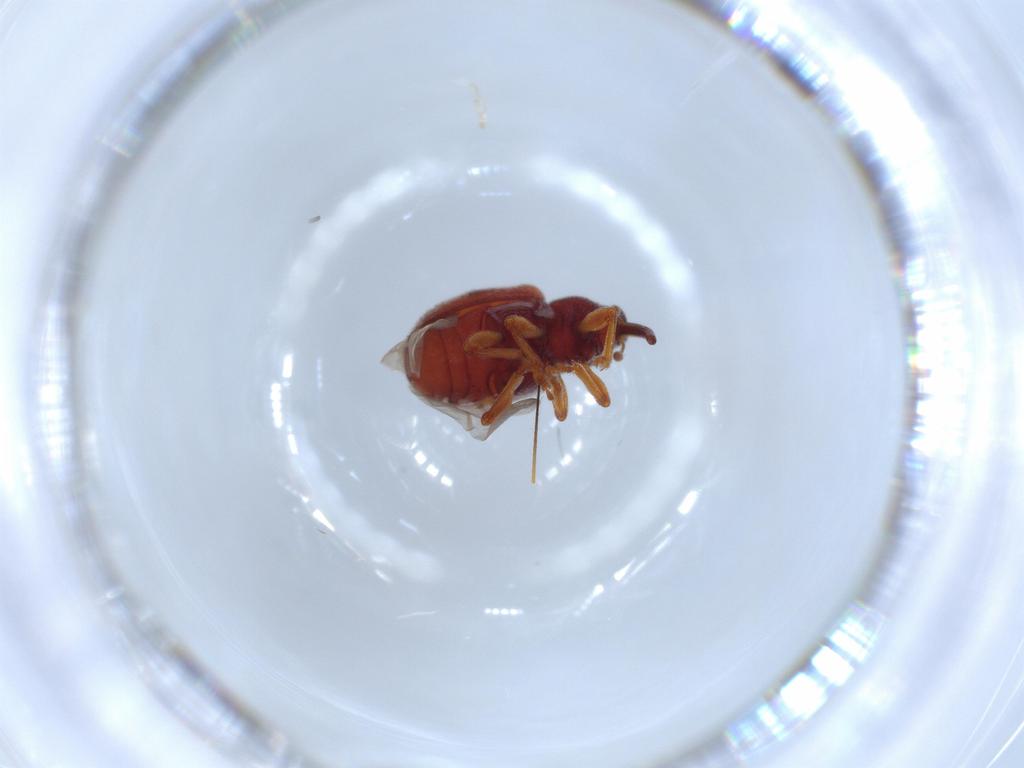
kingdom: Animalia
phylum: Arthropoda
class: Insecta
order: Coleoptera
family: Curculionidae
